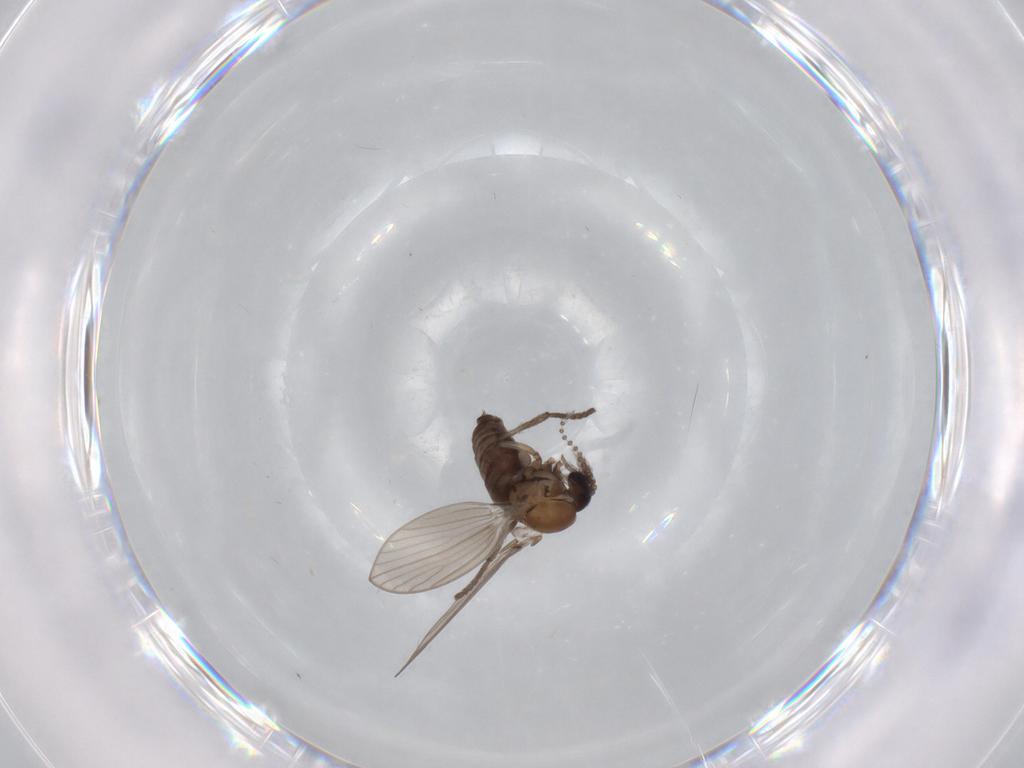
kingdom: Animalia
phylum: Arthropoda
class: Insecta
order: Diptera
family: Psychodidae
